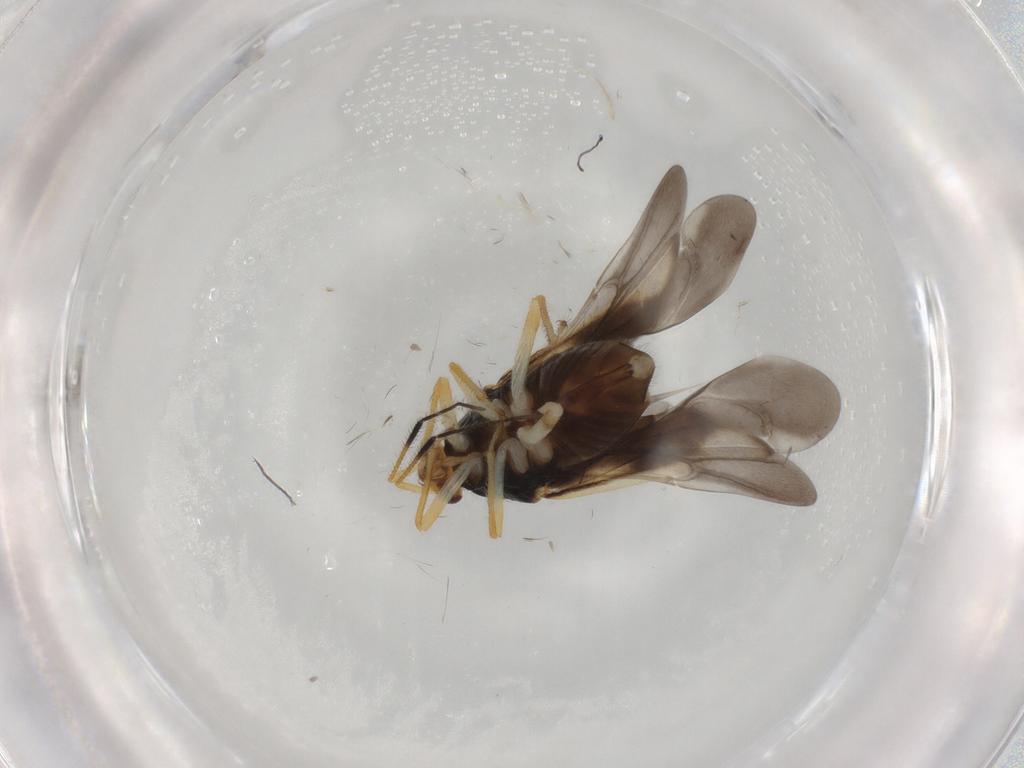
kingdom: Animalia
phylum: Arthropoda
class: Insecta
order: Hemiptera
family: Miridae
